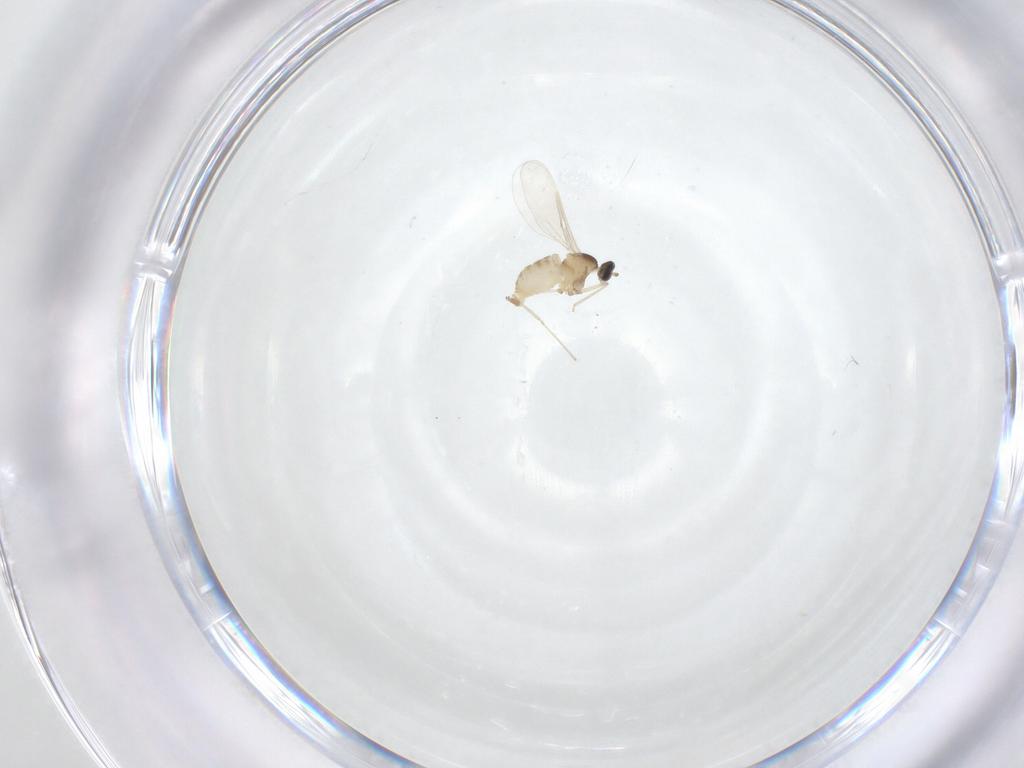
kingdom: Animalia
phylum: Arthropoda
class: Insecta
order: Diptera
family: Cecidomyiidae
